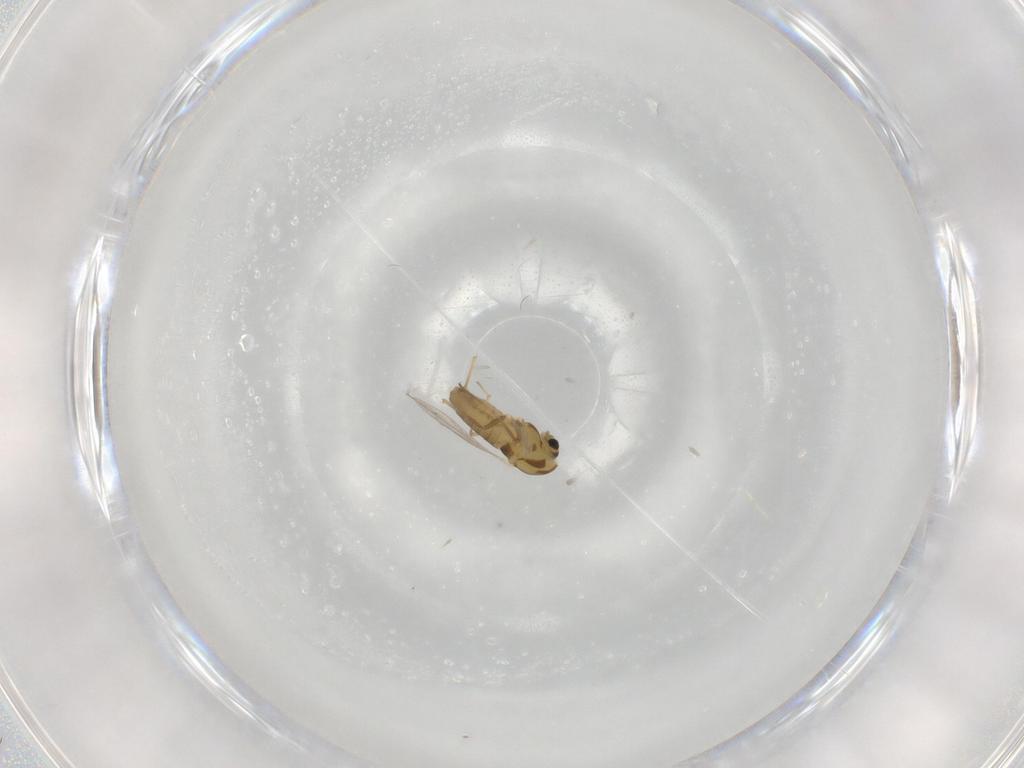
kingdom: Animalia
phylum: Arthropoda
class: Insecta
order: Diptera
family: Chironomidae
